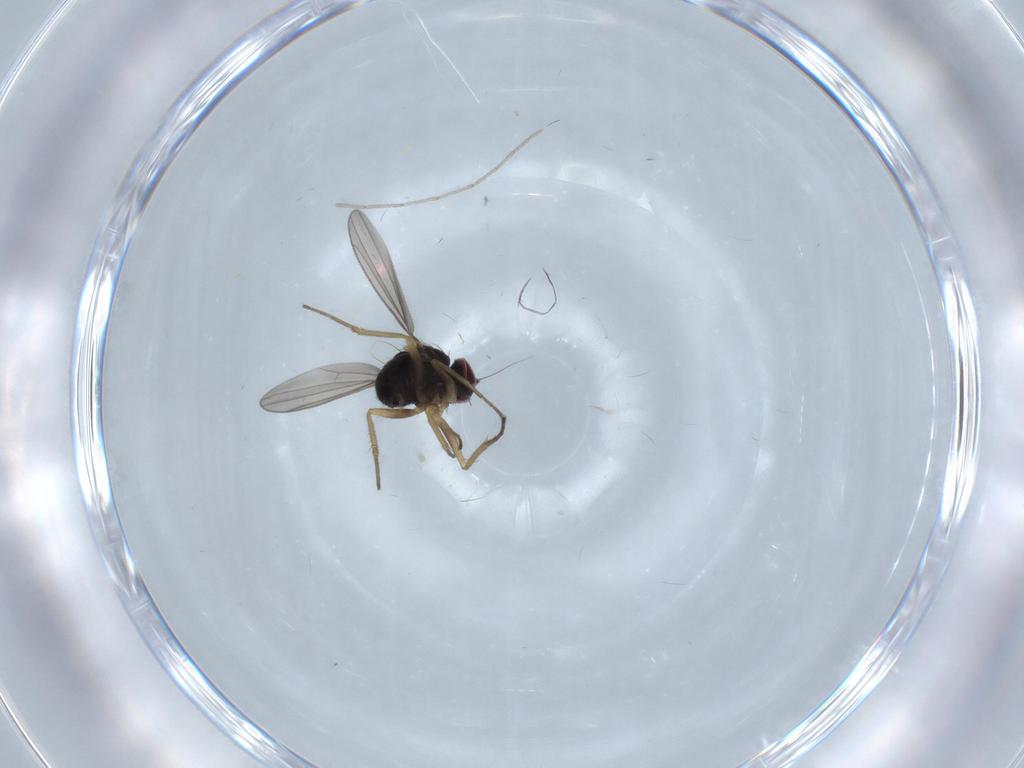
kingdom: Animalia
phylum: Arthropoda
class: Insecta
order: Diptera
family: Dolichopodidae
